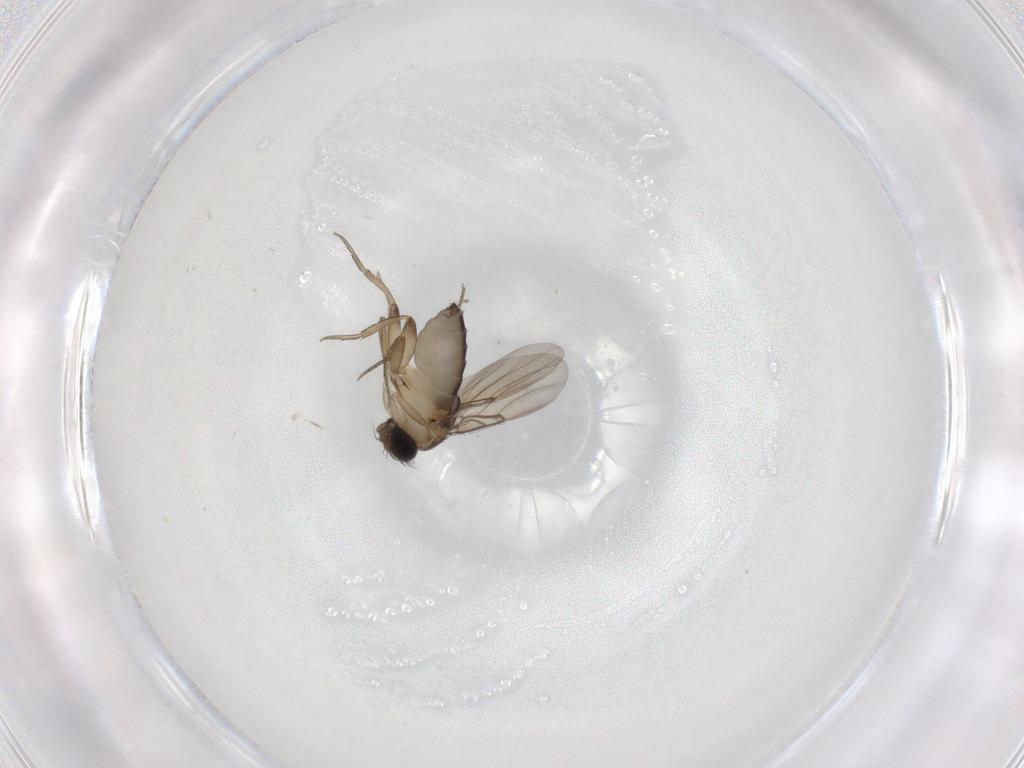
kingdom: Animalia
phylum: Arthropoda
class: Insecta
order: Diptera
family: Phoridae
